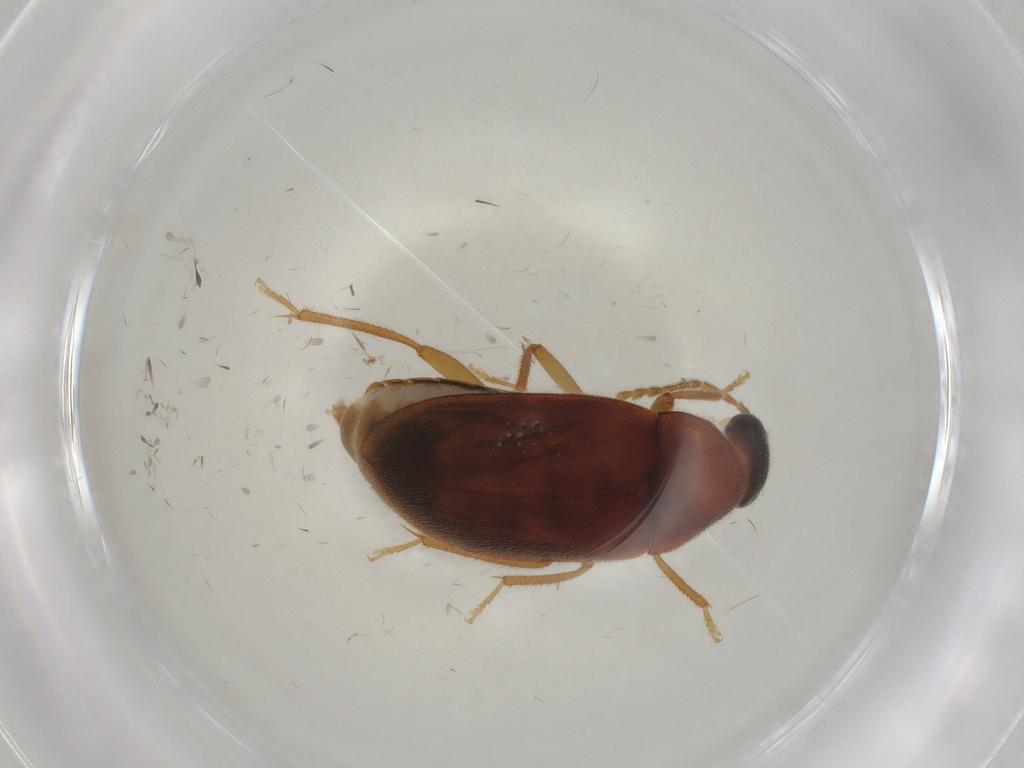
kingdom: Animalia
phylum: Arthropoda
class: Insecta
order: Coleoptera
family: Ptilodactylidae
